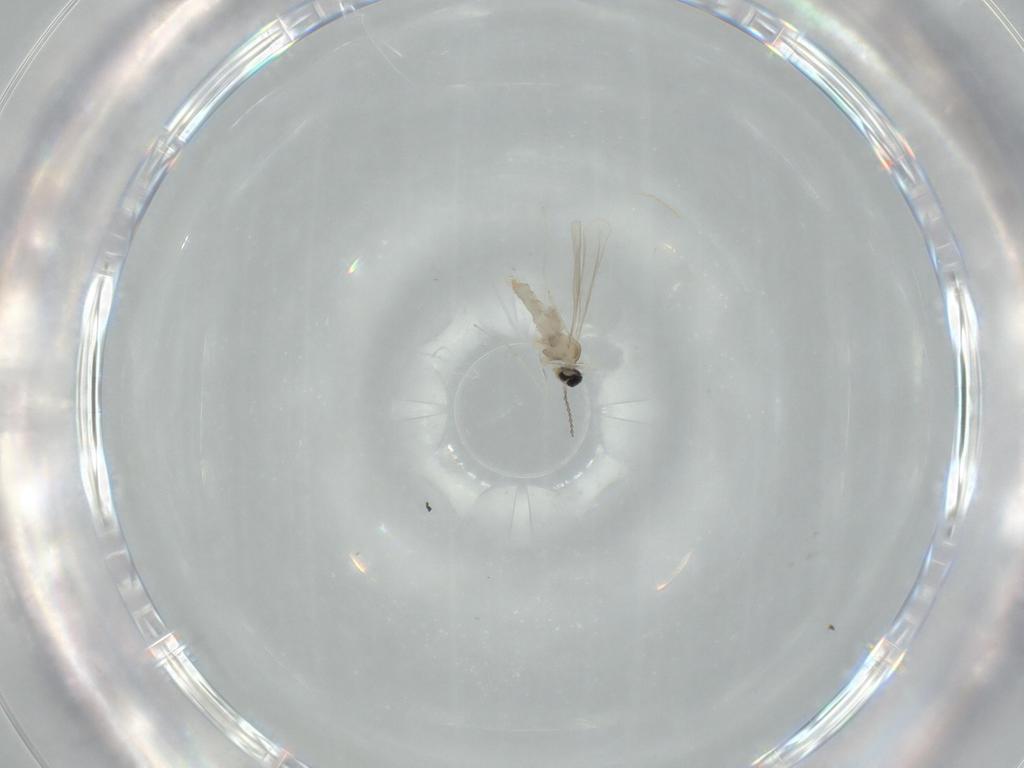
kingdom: Animalia
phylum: Arthropoda
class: Insecta
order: Diptera
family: Cecidomyiidae
